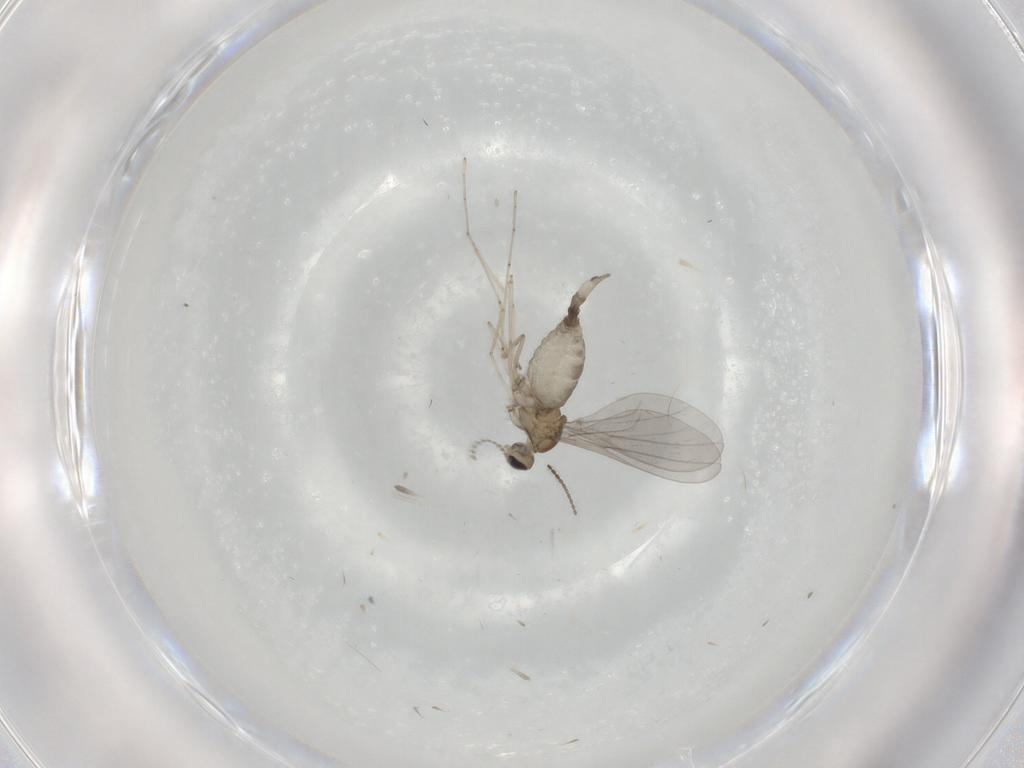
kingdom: Animalia
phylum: Arthropoda
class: Insecta
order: Diptera
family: Cecidomyiidae
